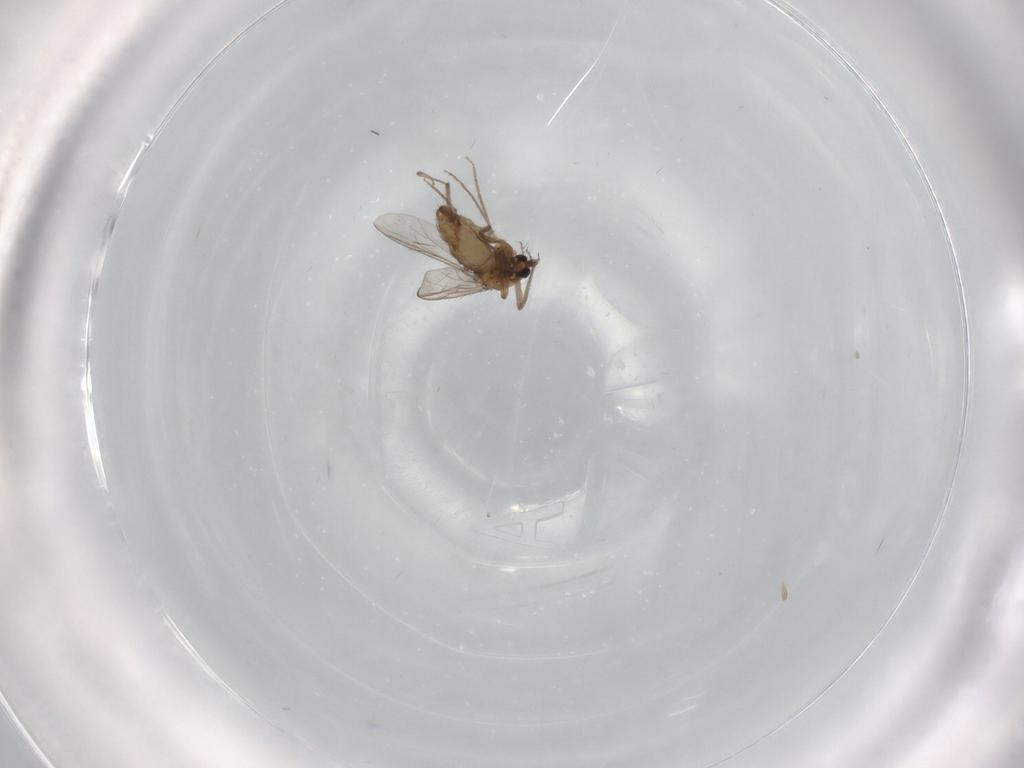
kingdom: Animalia
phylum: Arthropoda
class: Insecta
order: Diptera
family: Chironomidae
